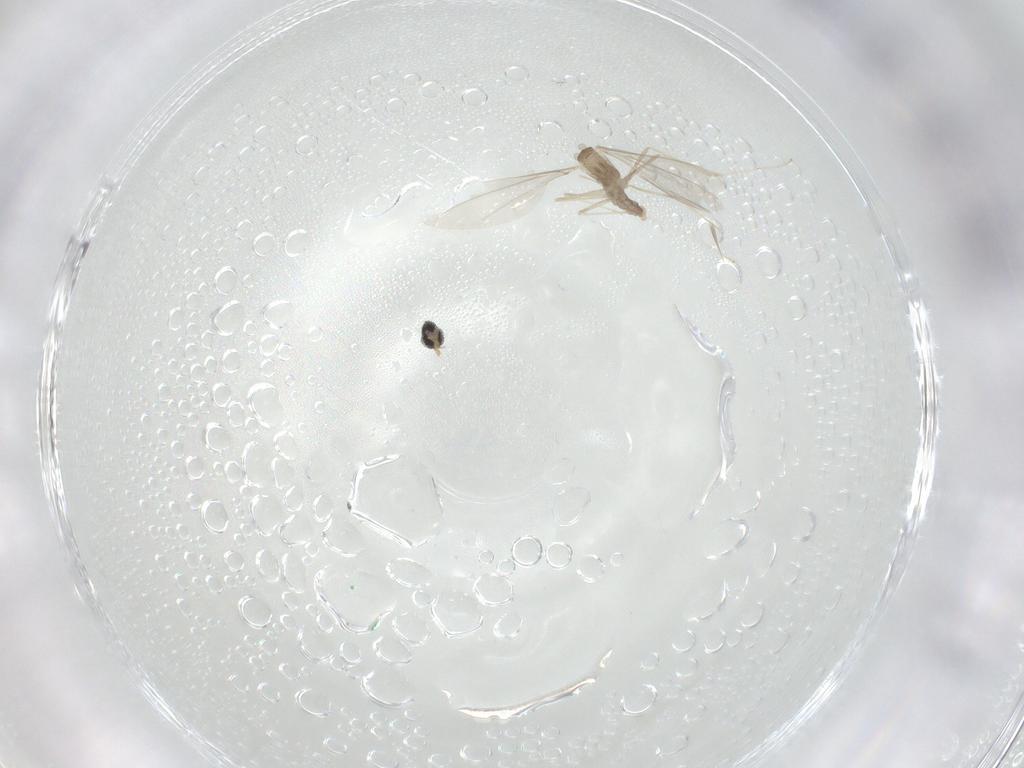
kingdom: Animalia
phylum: Arthropoda
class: Insecta
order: Diptera
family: Cecidomyiidae
